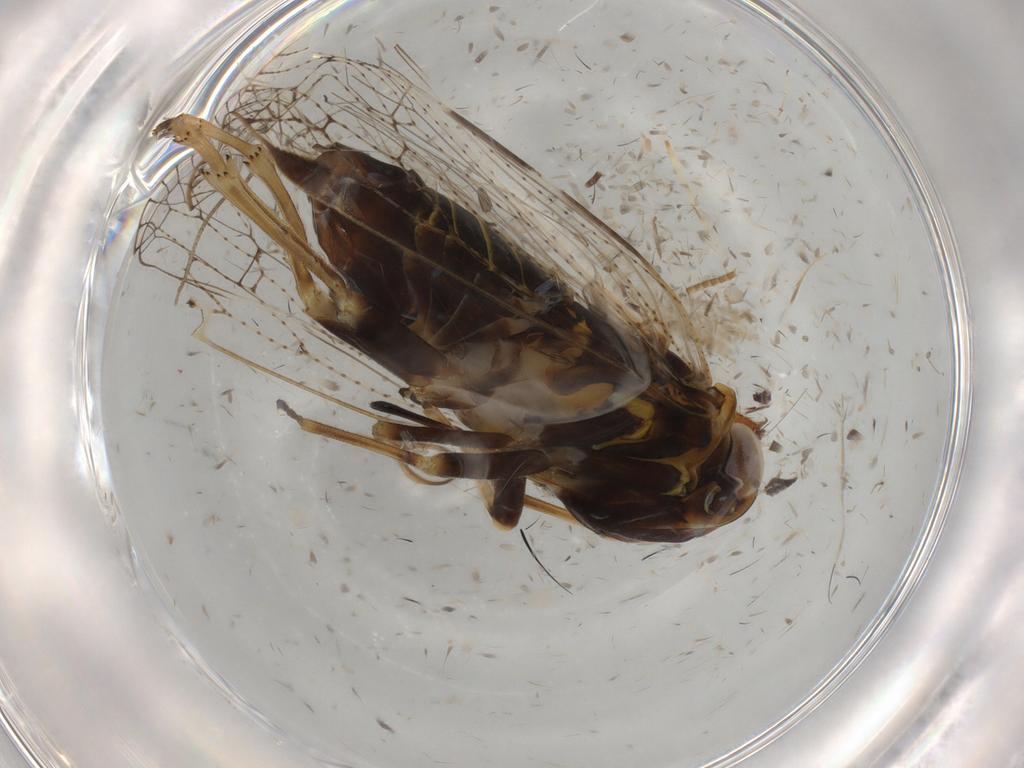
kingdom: Animalia
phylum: Arthropoda
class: Insecta
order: Hemiptera
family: Cixiidae
